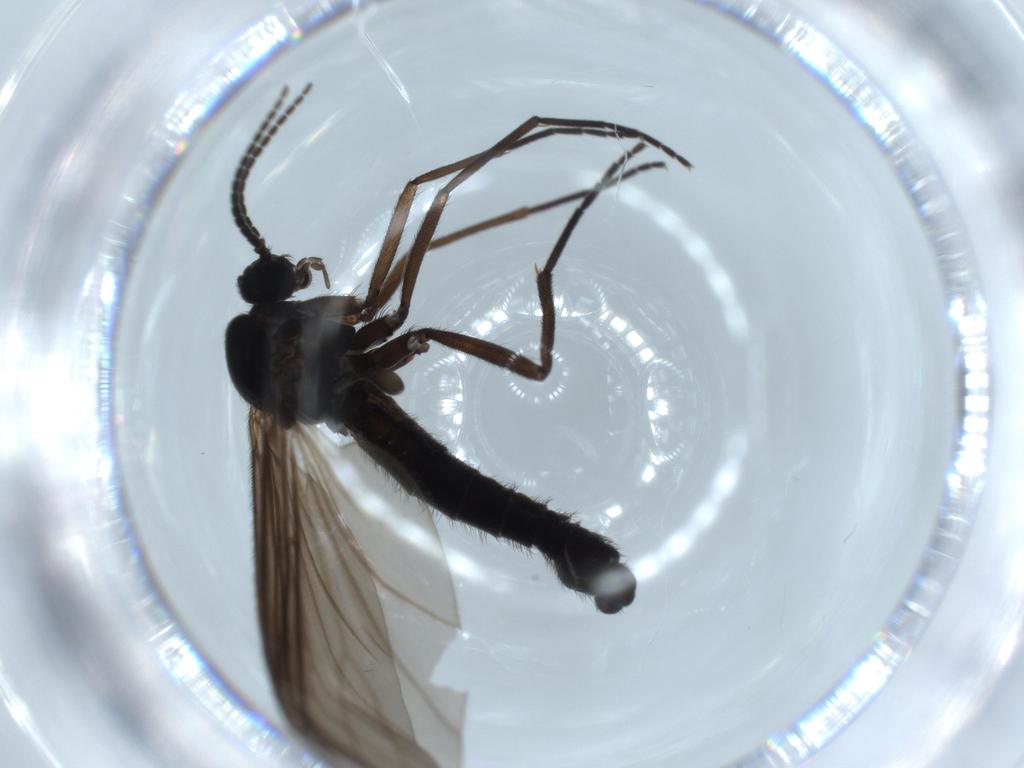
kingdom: Animalia
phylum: Arthropoda
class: Insecta
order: Diptera
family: Phoridae
